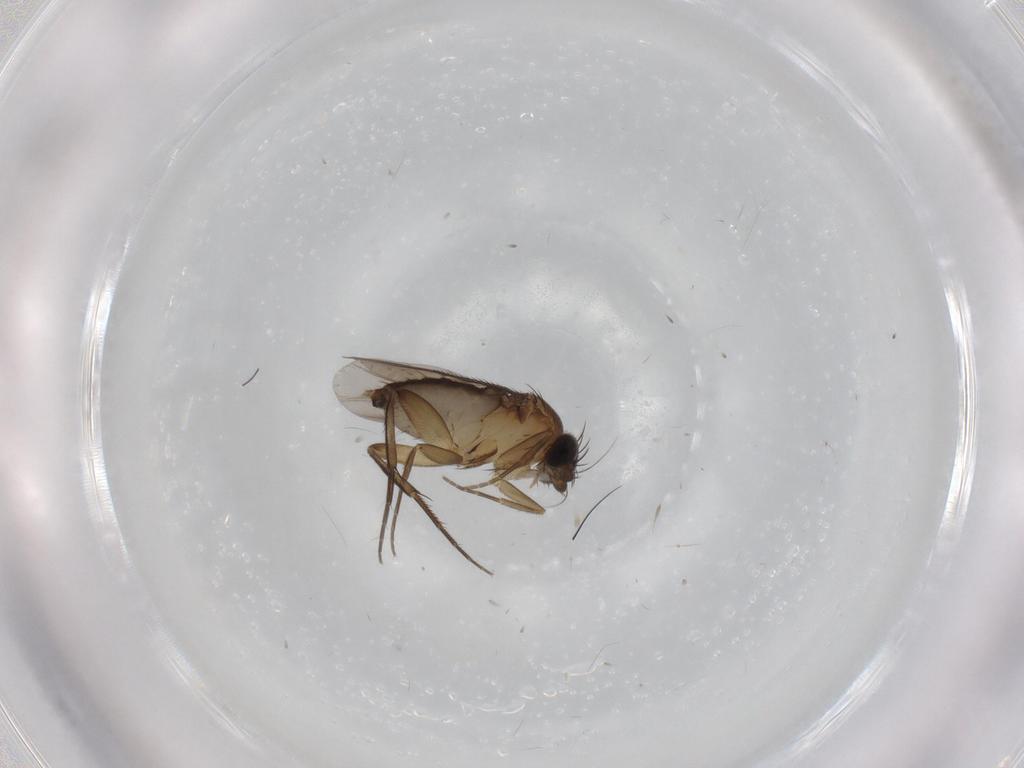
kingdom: Animalia
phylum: Arthropoda
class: Insecta
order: Diptera
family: Phoridae
